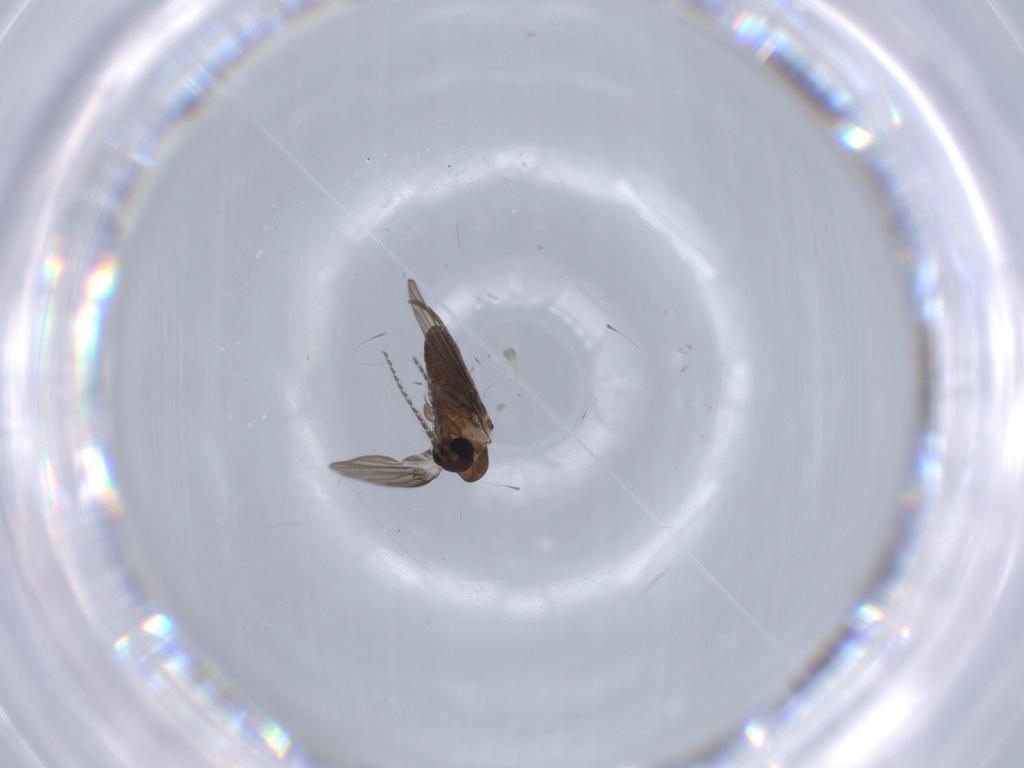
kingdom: Animalia
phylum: Arthropoda
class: Insecta
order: Diptera
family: Psychodidae
